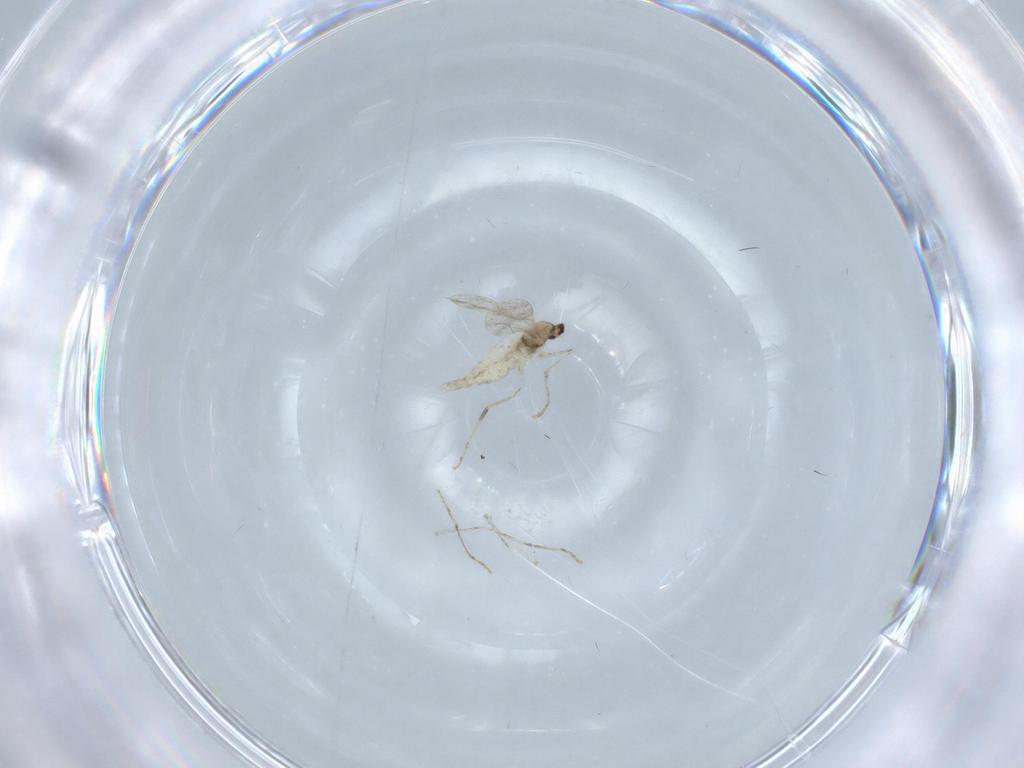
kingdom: Animalia
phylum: Arthropoda
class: Insecta
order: Diptera
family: Cecidomyiidae
